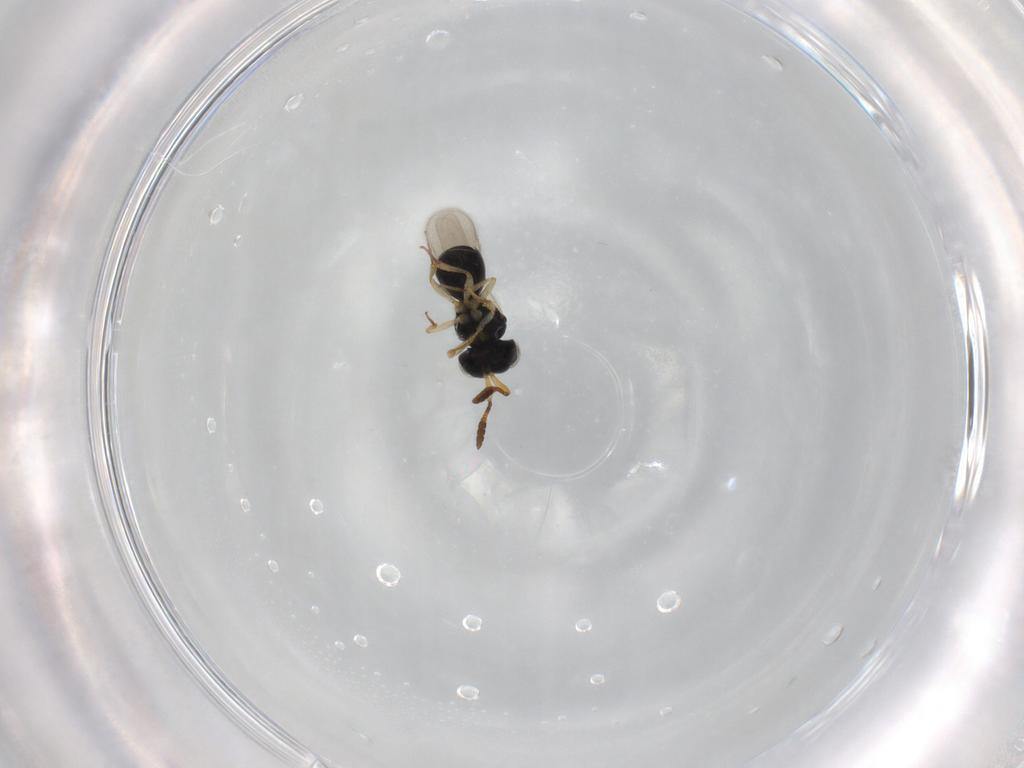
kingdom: Animalia
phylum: Arthropoda
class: Insecta
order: Hymenoptera
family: Scelionidae
